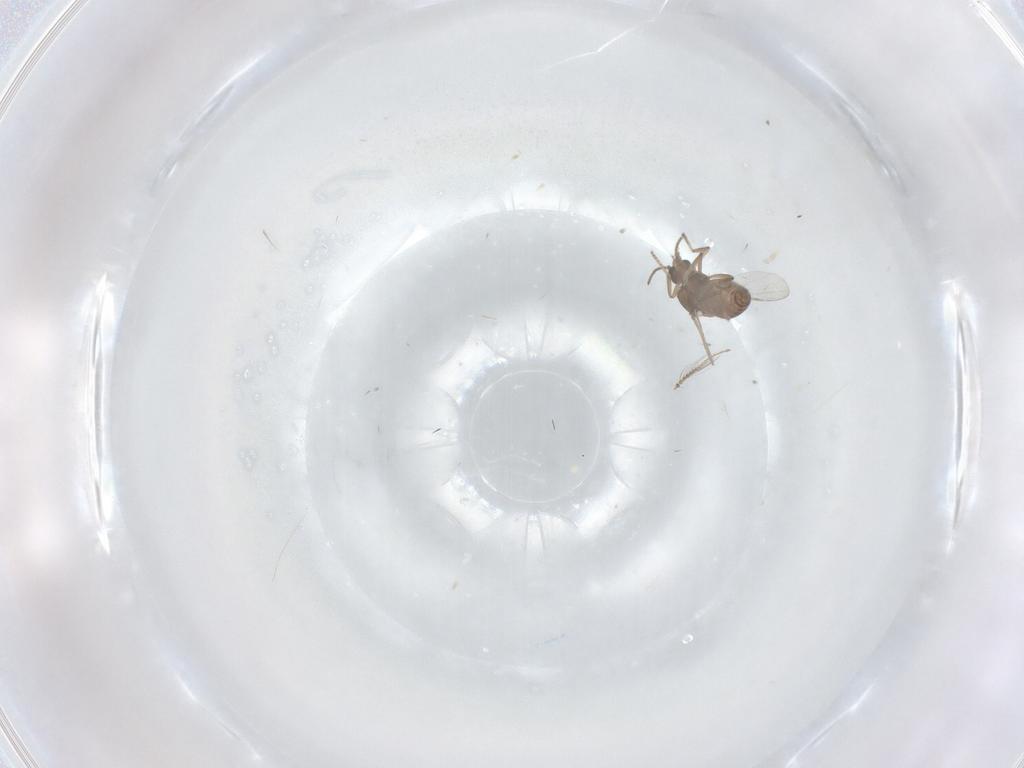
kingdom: Animalia
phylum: Arthropoda
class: Insecta
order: Diptera
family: Ceratopogonidae
